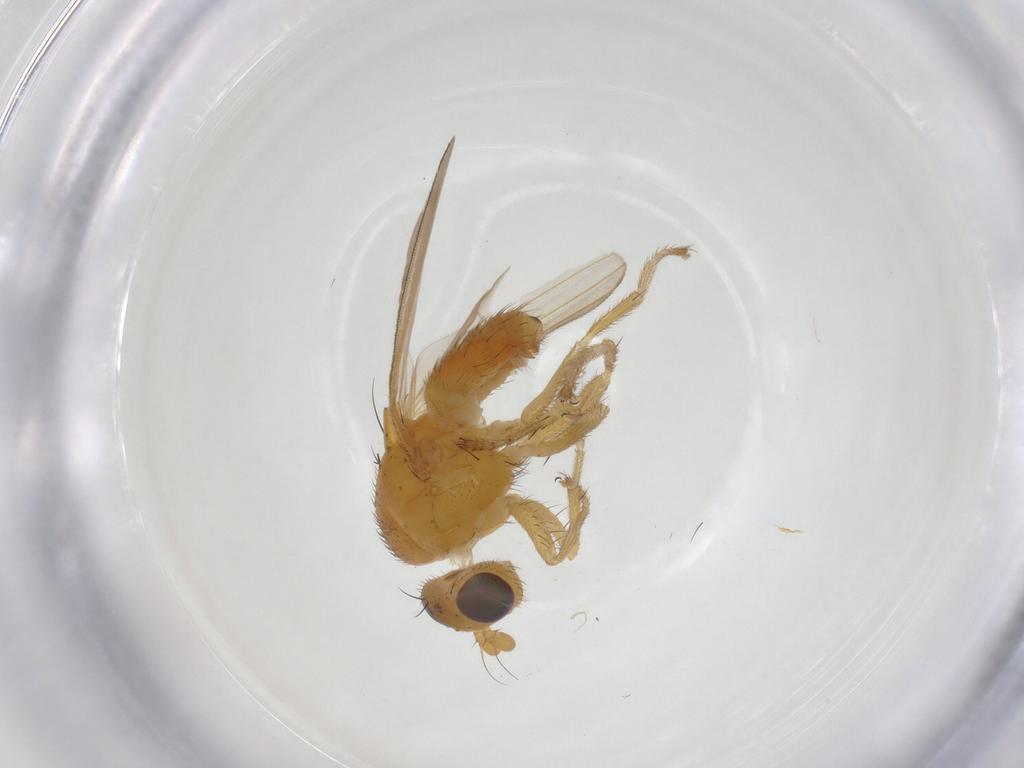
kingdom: Animalia
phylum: Arthropoda
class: Insecta
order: Diptera
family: Lauxaniidae
